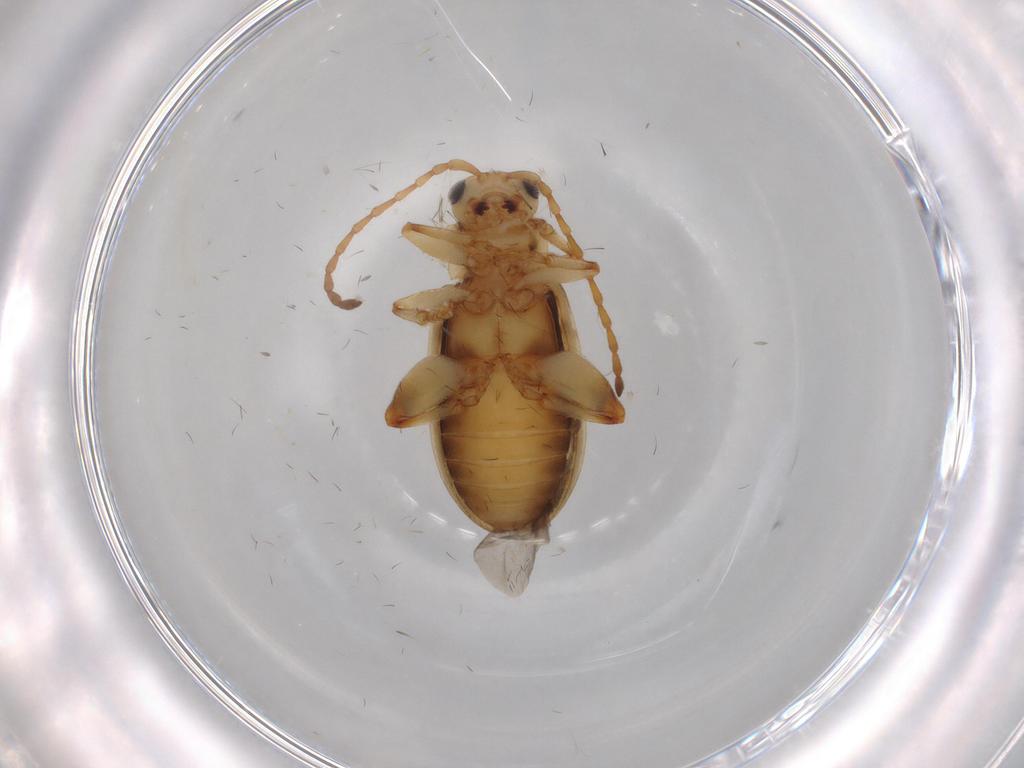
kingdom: Animalia
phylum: Arthropoda
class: Insecta
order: Coleoptera
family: Chrysomelidae
